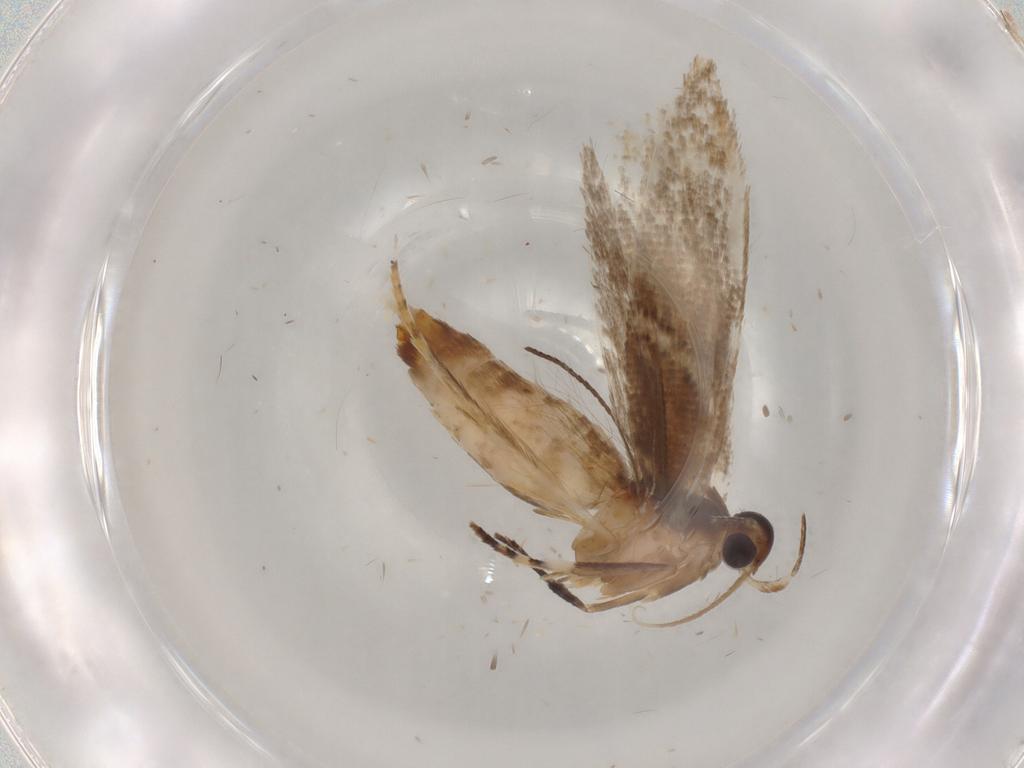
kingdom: Animalia
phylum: Arthropoda
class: Insecta
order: Lepidoptera
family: Oecophoridae
